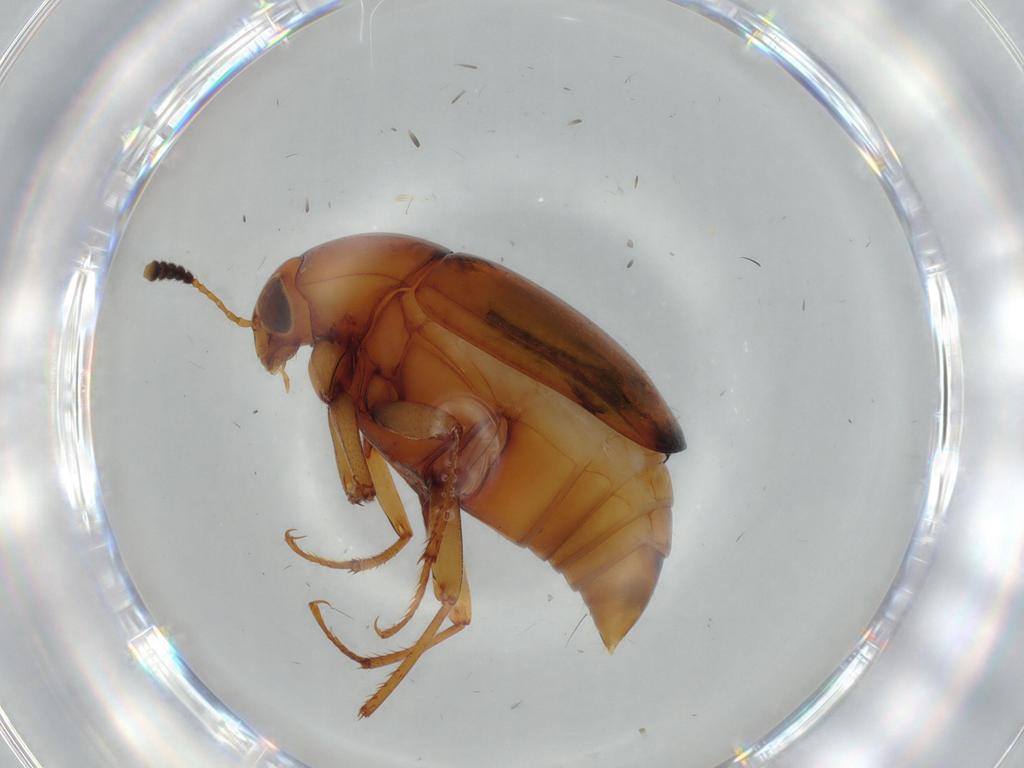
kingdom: Animalia
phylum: Arthropoda
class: Insecta
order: Coleoptera
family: Staphylinidae
